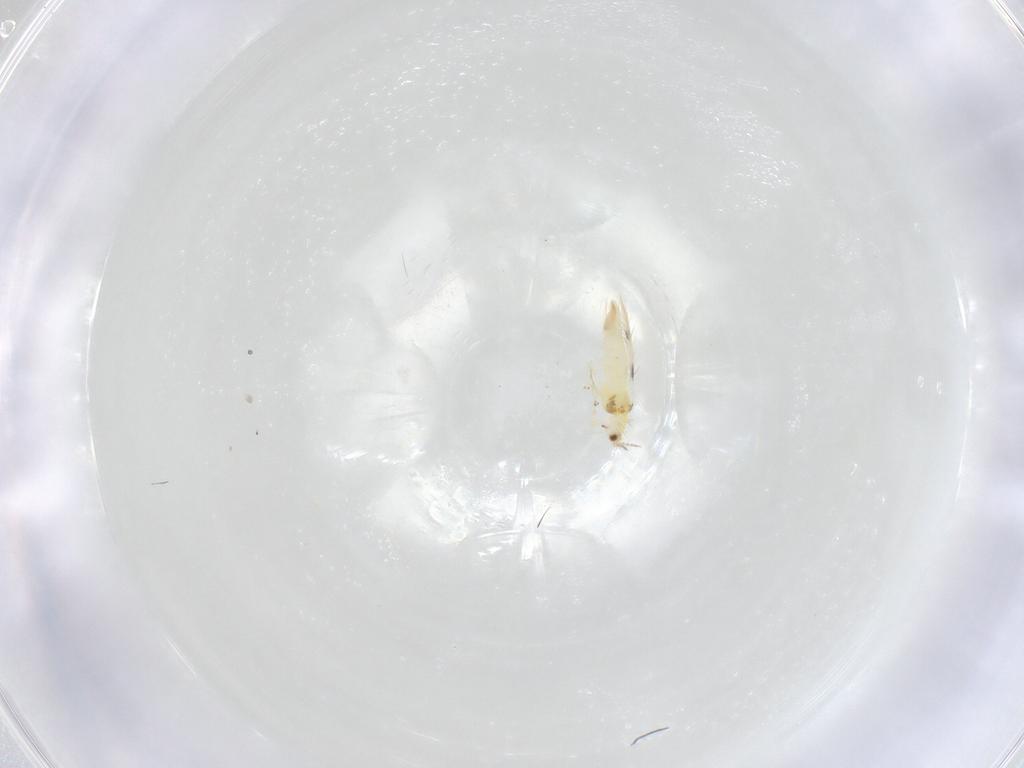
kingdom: Animalia
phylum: Arthropoda
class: Insecta
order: Thysanoptera
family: Thripidae
